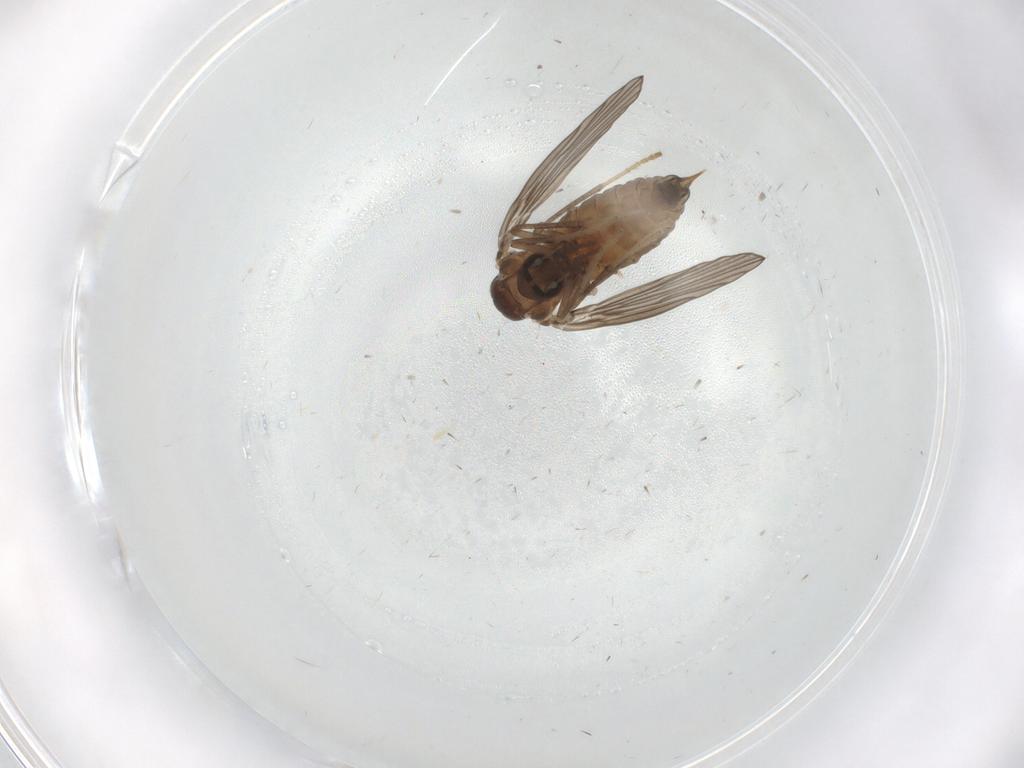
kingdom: Animalia
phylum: Arthropoda
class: Insecta
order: Diptera
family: Psychodidae
